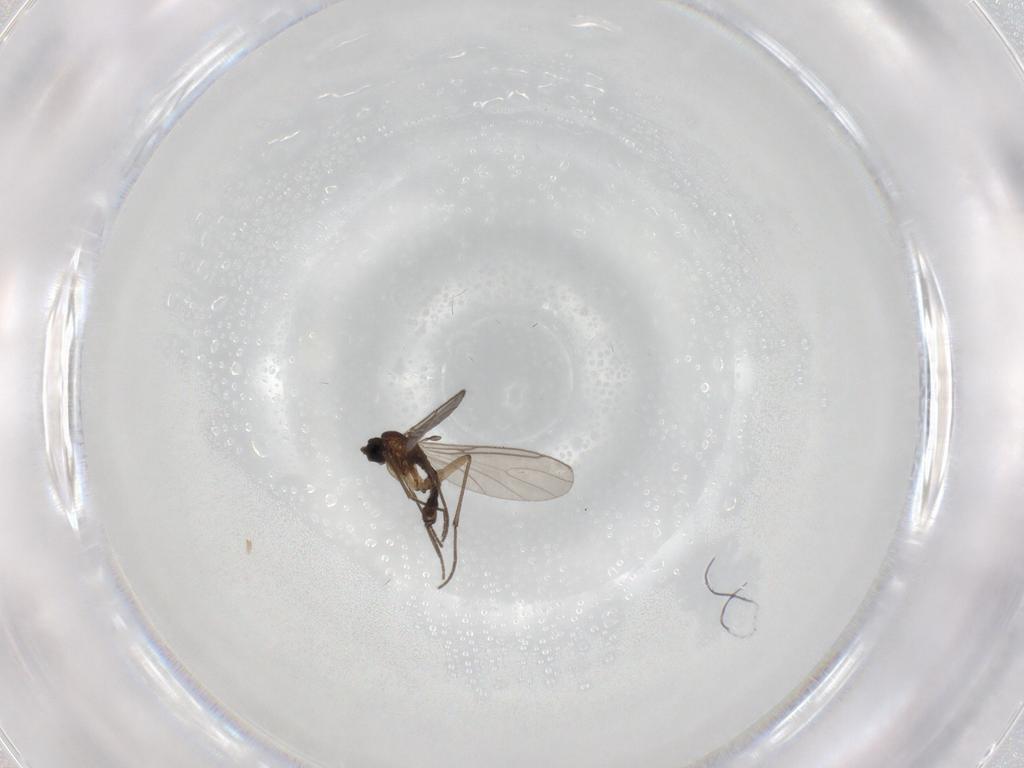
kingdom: Animalia
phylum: Arthropoda
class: Insecta
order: Diptera
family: Sciaridae
